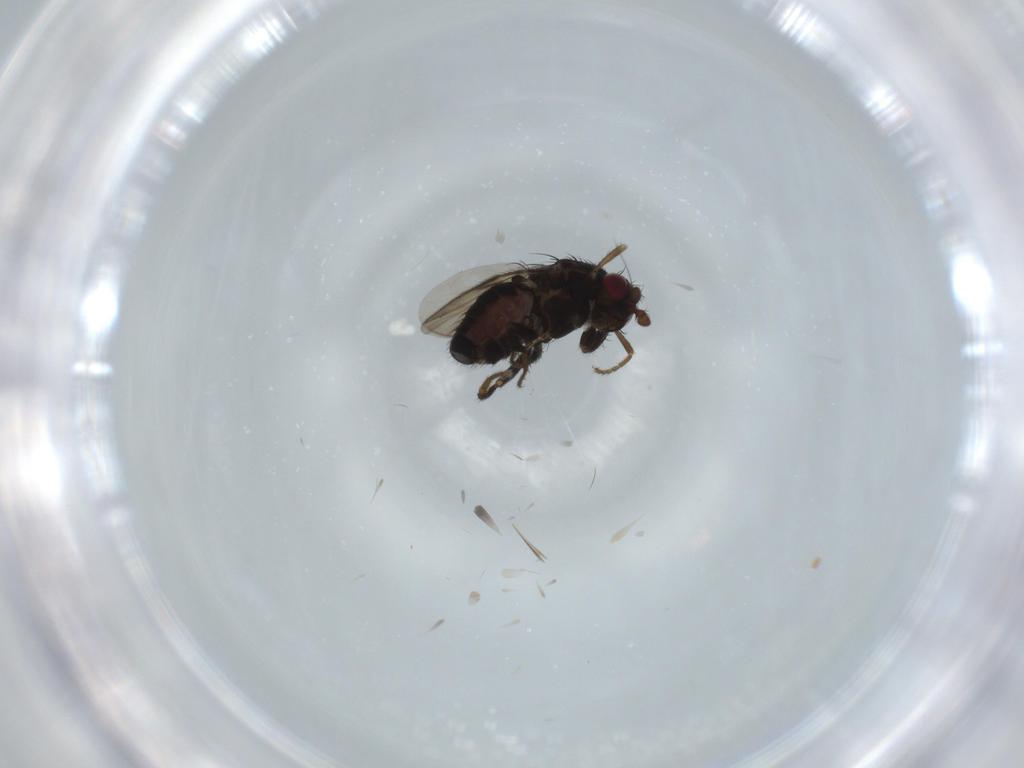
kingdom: Animalia
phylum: Arthropoda
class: Insecta
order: Diptera
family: Sphaeroceridae
